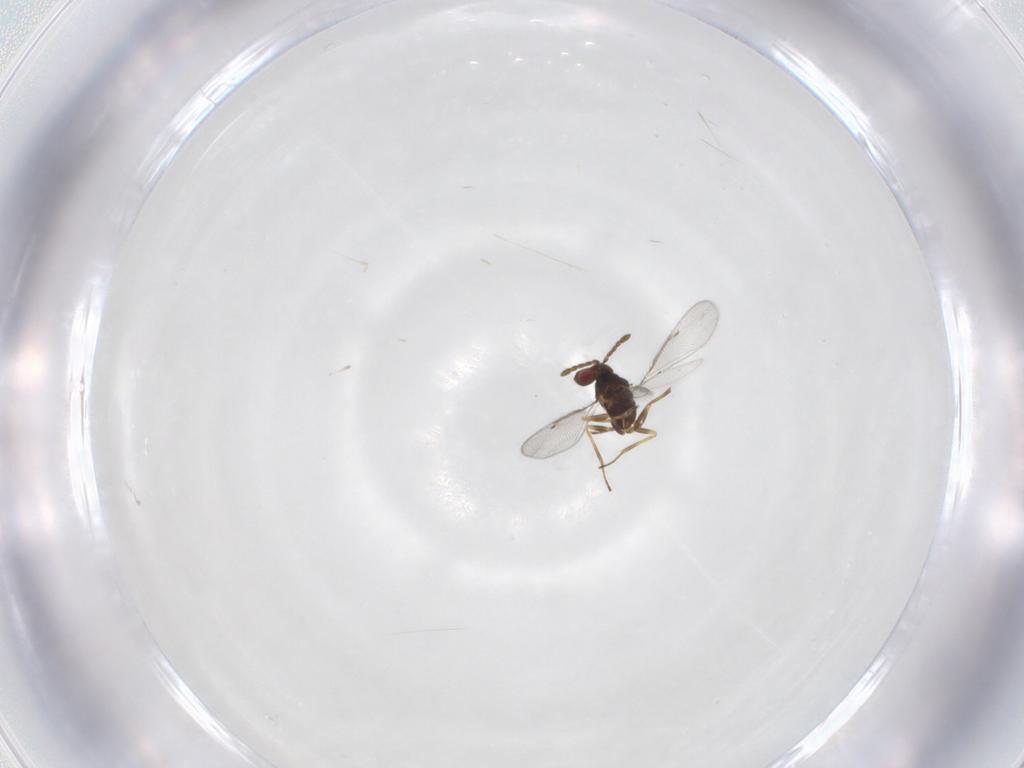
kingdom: Animalia
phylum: Arthropoda
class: Insecta
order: Hymenoptera
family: Eulophidae
